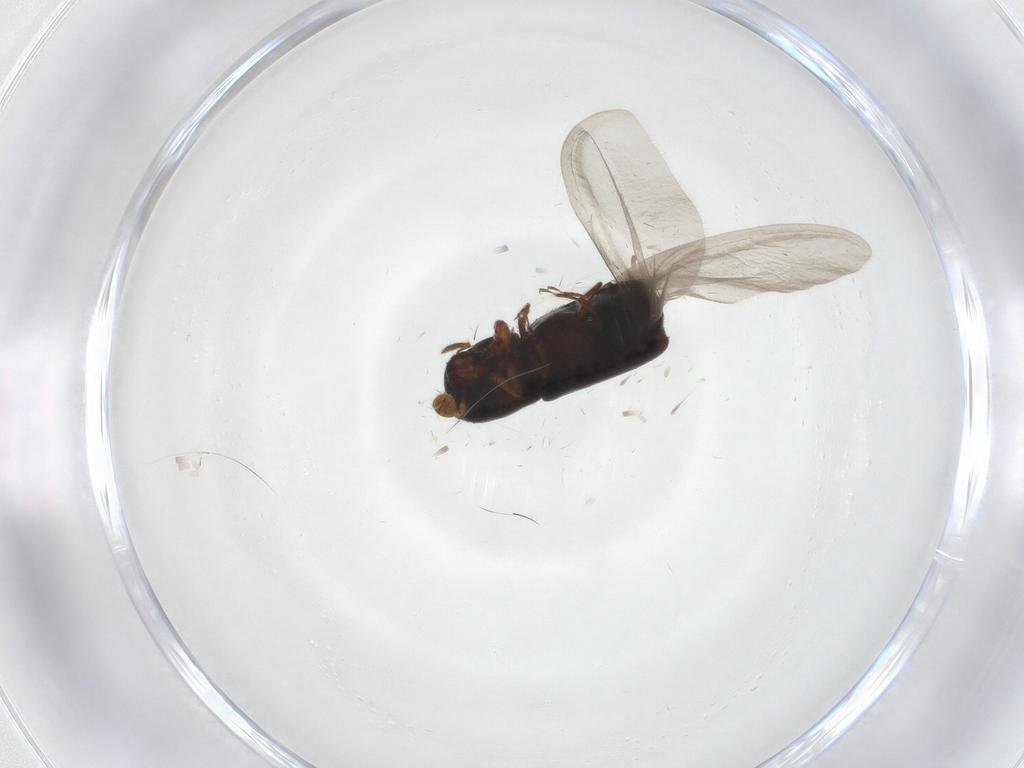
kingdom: Animalia
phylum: Arthropoda
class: Insecta
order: Coleoptera
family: Curculionidae
